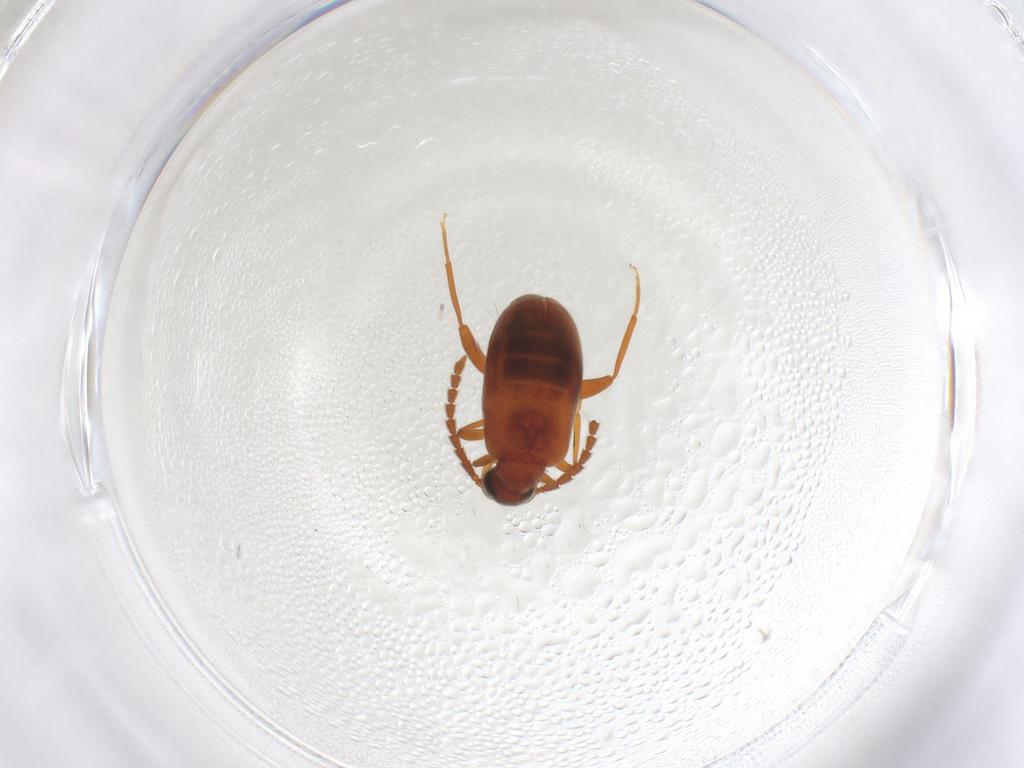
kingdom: Animalia
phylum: Arthropoda
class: Insecta
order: Coleoptera
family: Aderidae
